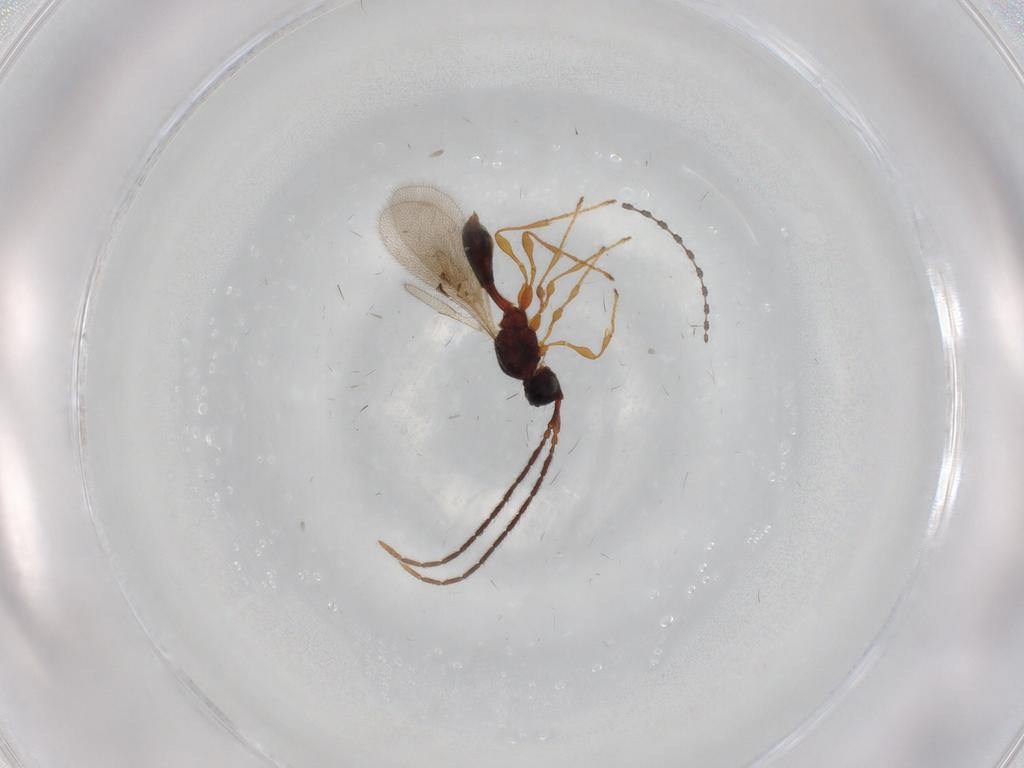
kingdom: Animalia
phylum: Arthropoda
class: Insecta
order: Hymenoptera
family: Diapriidae
